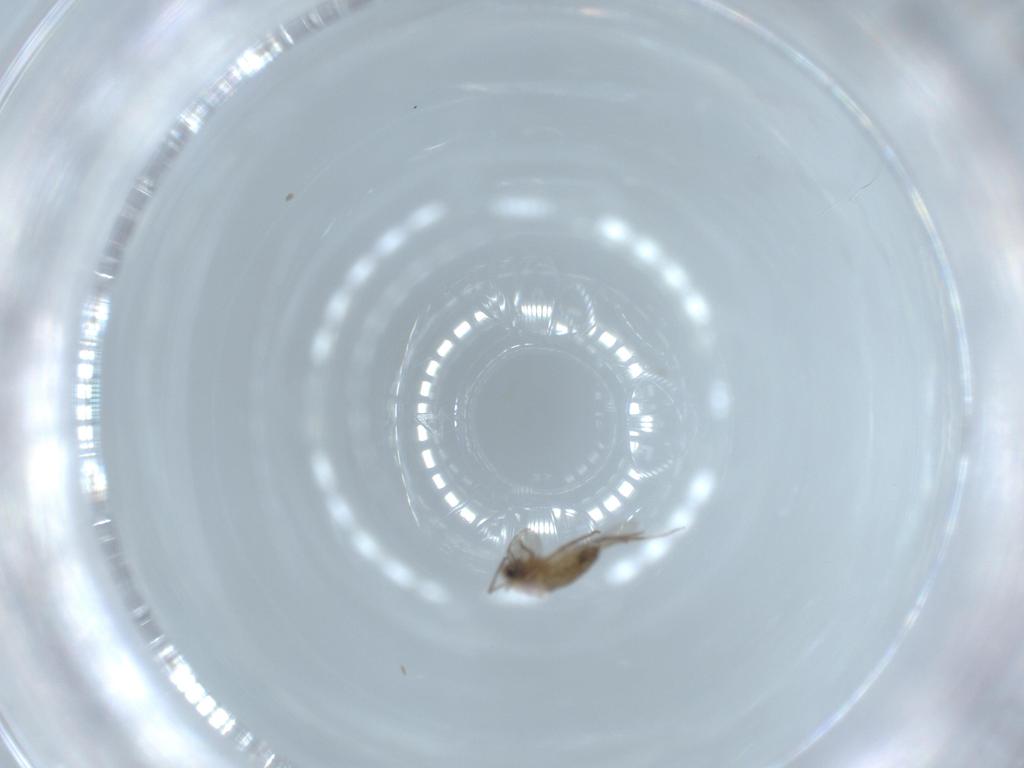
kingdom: Animalia
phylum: Arthropoda
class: Insecta
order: Diptera
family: Chironomidae
